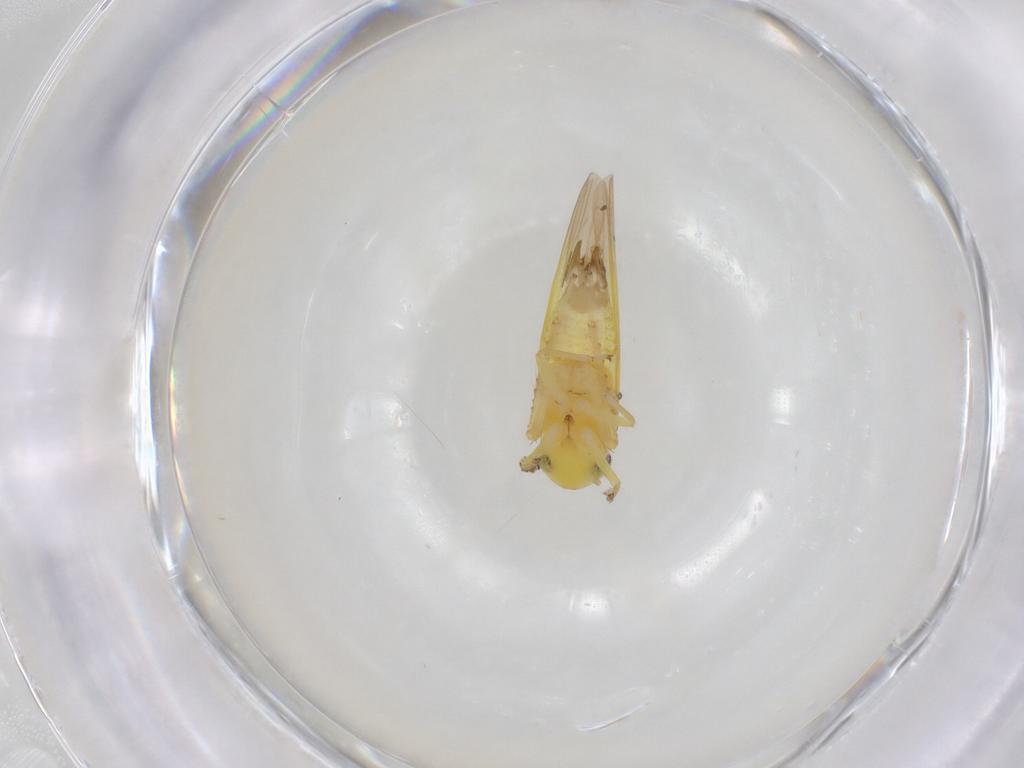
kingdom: Animalia
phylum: Arthropoda
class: Insecta
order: Hemiptera
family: Cicadellidae
